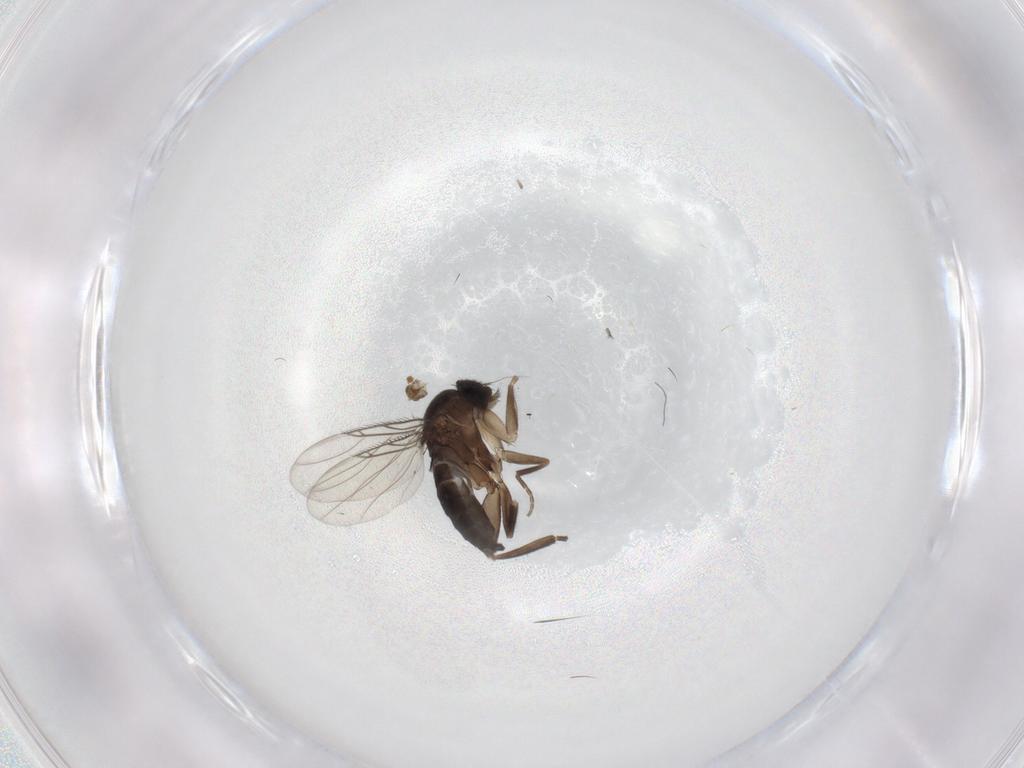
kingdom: Animalia
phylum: Arthropoda
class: Insecta
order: Diptera
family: Phoridae
